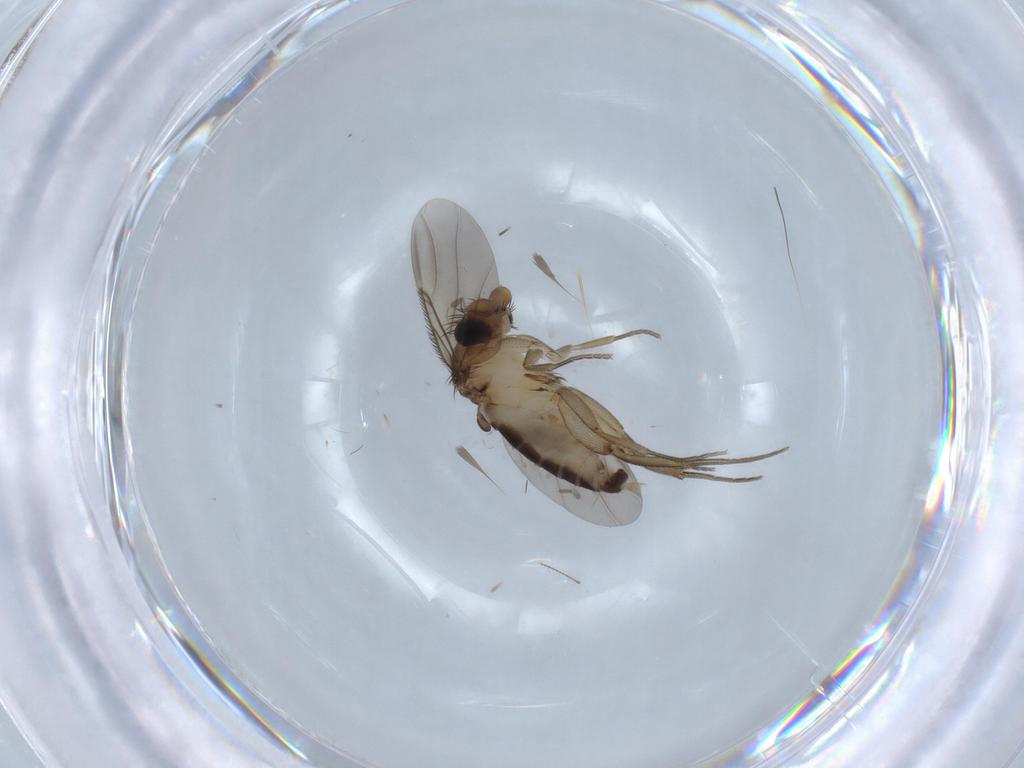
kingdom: Animalia
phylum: Arthropoda
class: Insecta
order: Diptera
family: Phoridae
